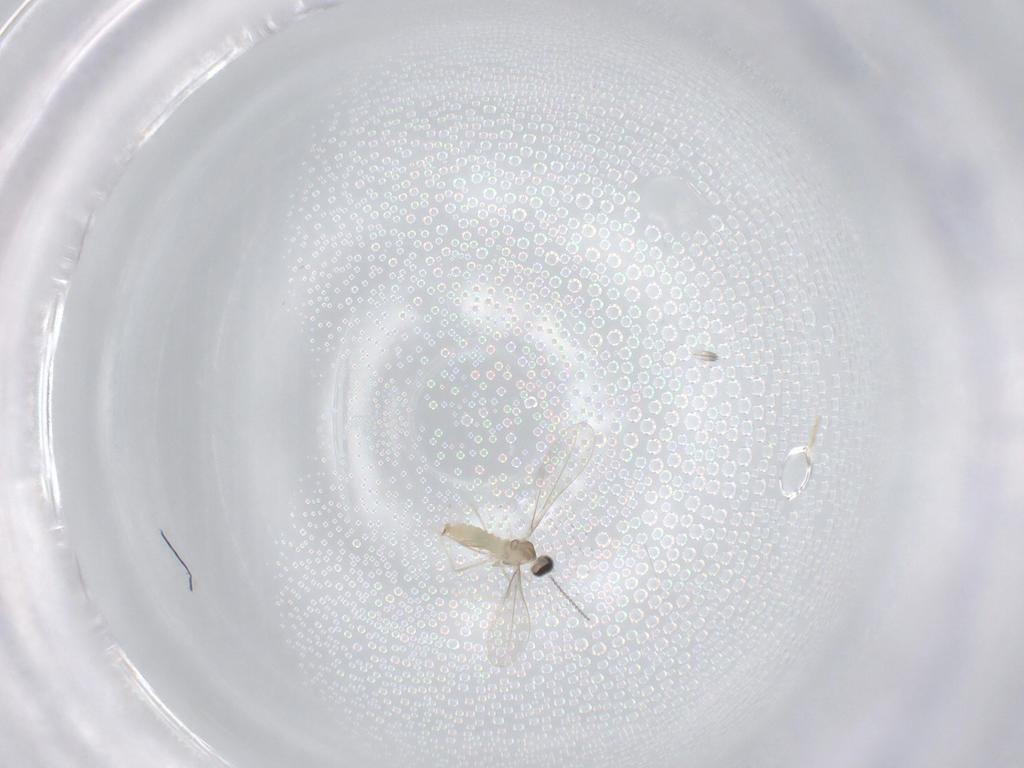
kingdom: Animalia
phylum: Arthropoda
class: Insecta
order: Diptera
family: Cecidomyiidae
